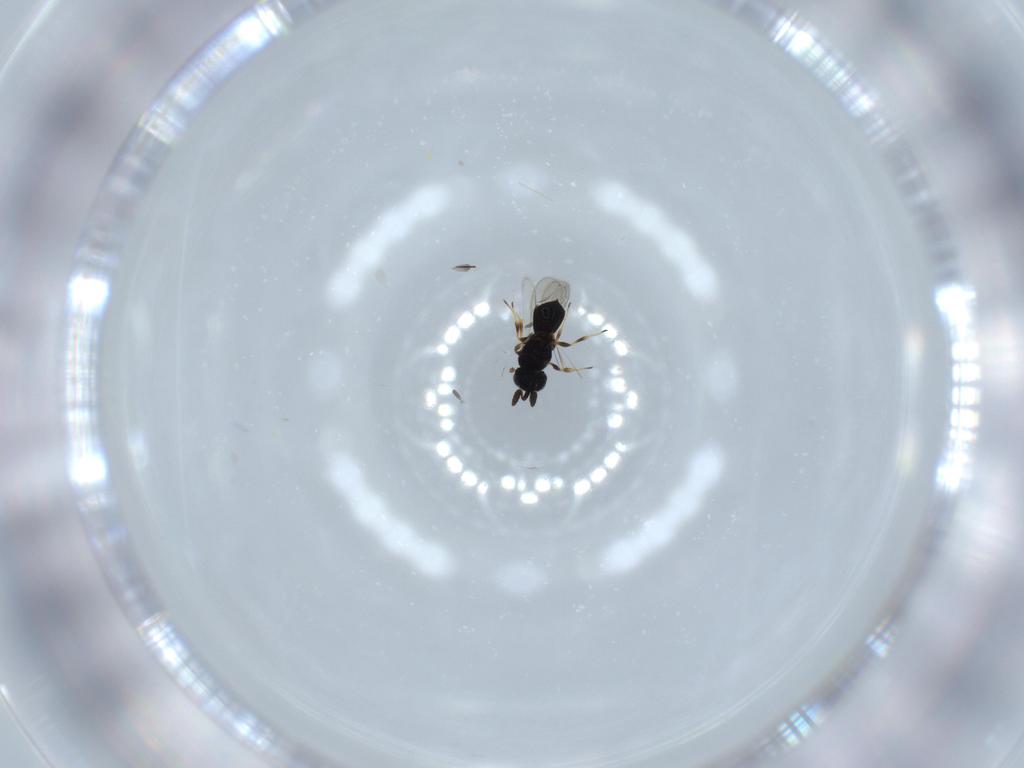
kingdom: Animalia
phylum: Arthropoda
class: Insecta
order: Hymenoptera
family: Scelionidae
